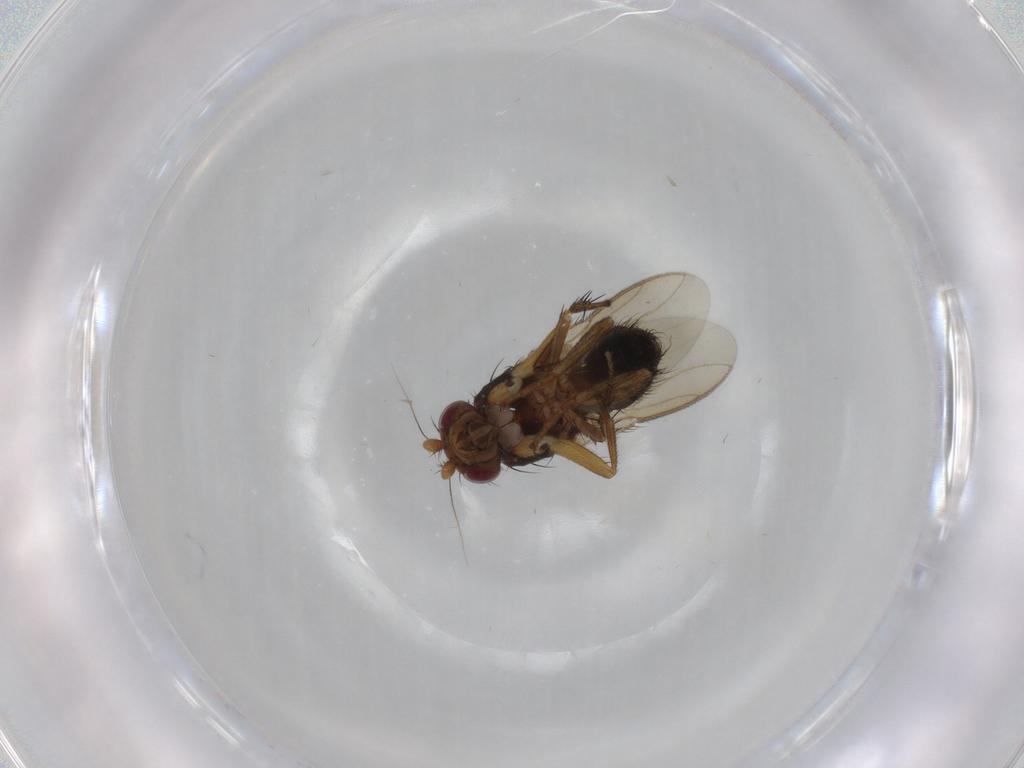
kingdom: Animalia
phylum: Arthropoda
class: Insecta
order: Diptera
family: Sphaeroceridae
